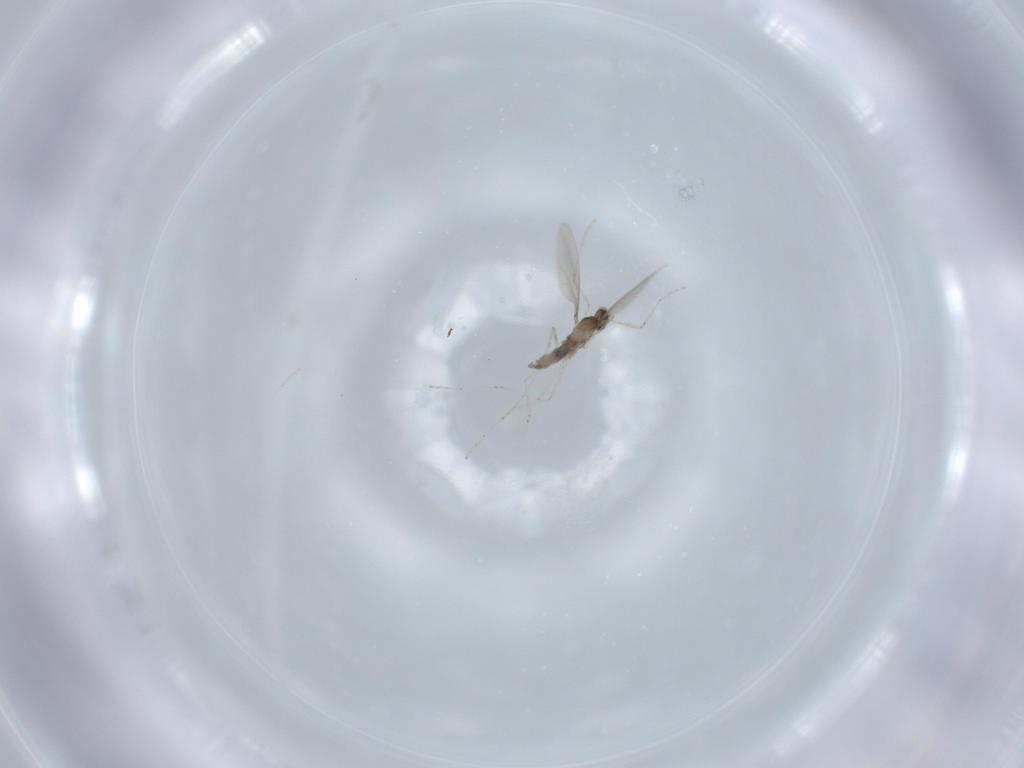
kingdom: Animalia
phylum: Arthropoda
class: Insecta
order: Diptera
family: Cecidomyiidae
